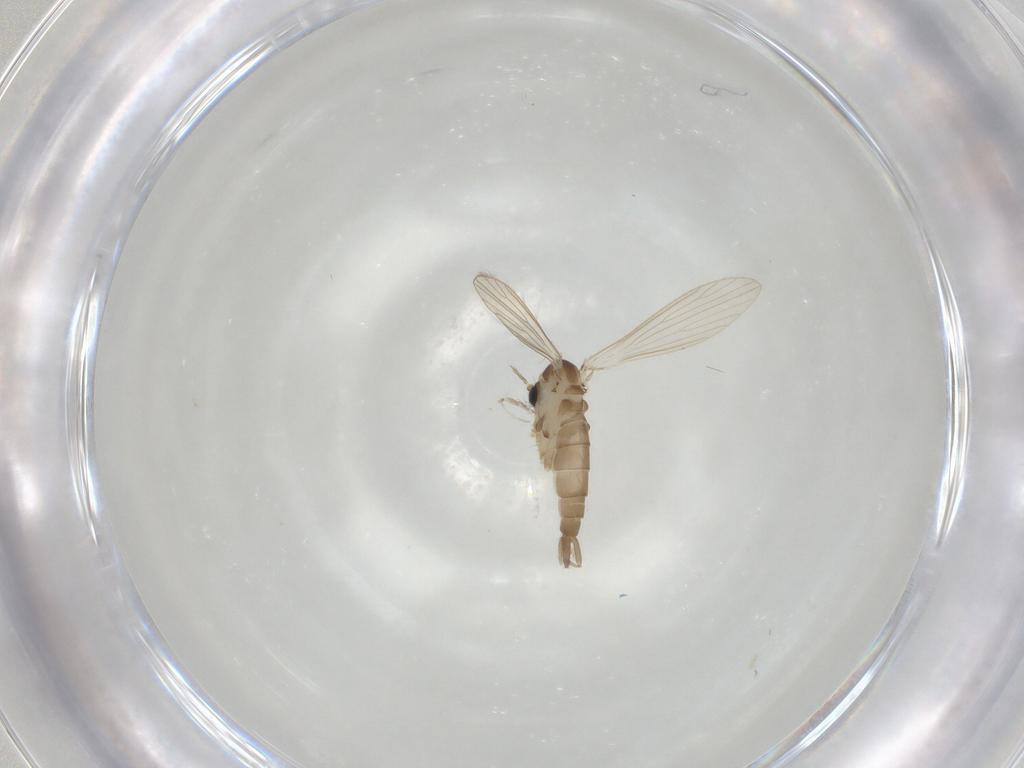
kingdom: Animalia
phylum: Arthropoda
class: Insecta
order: Diptera
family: Psychodidae
